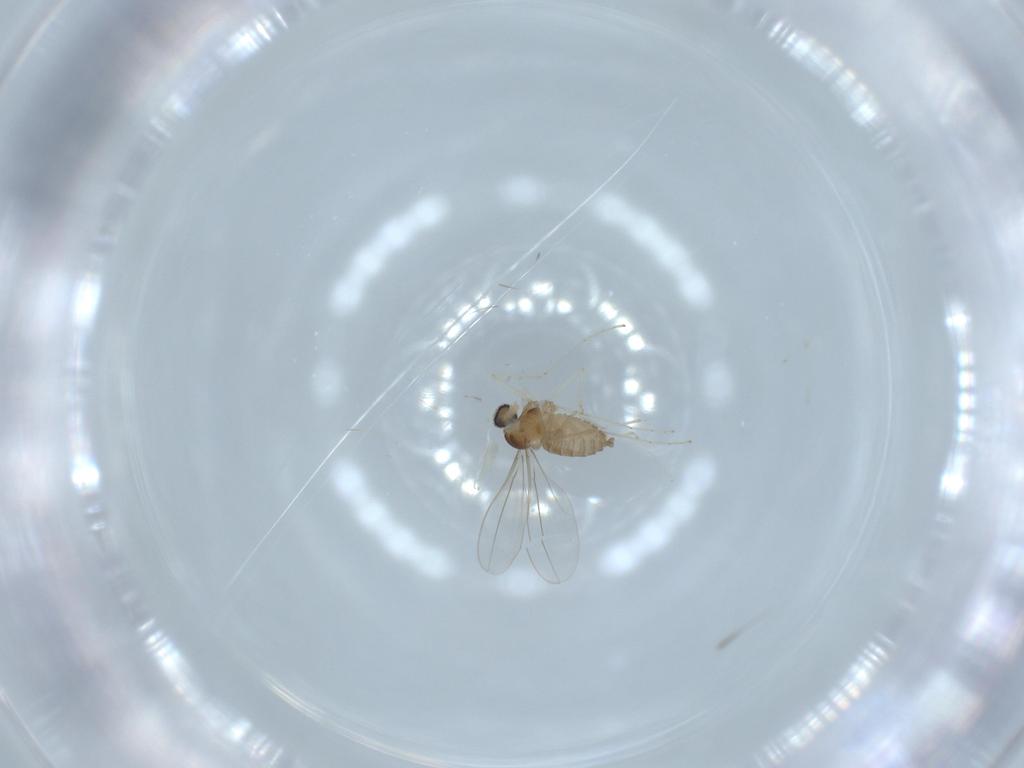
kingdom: Animalia
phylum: Arthropoda
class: Insecta
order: Diptera
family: Cecidomyiidae
